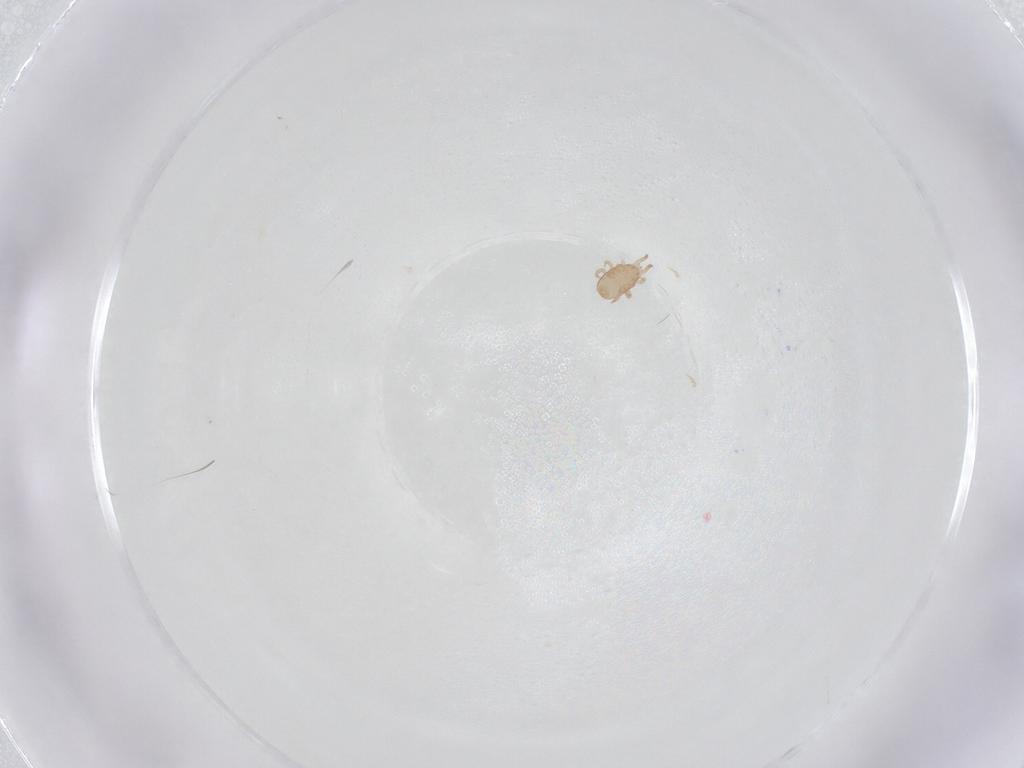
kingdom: Animalia
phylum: Arthropoda
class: Arachnida
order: Mesostigmata
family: Ameroseiidae
